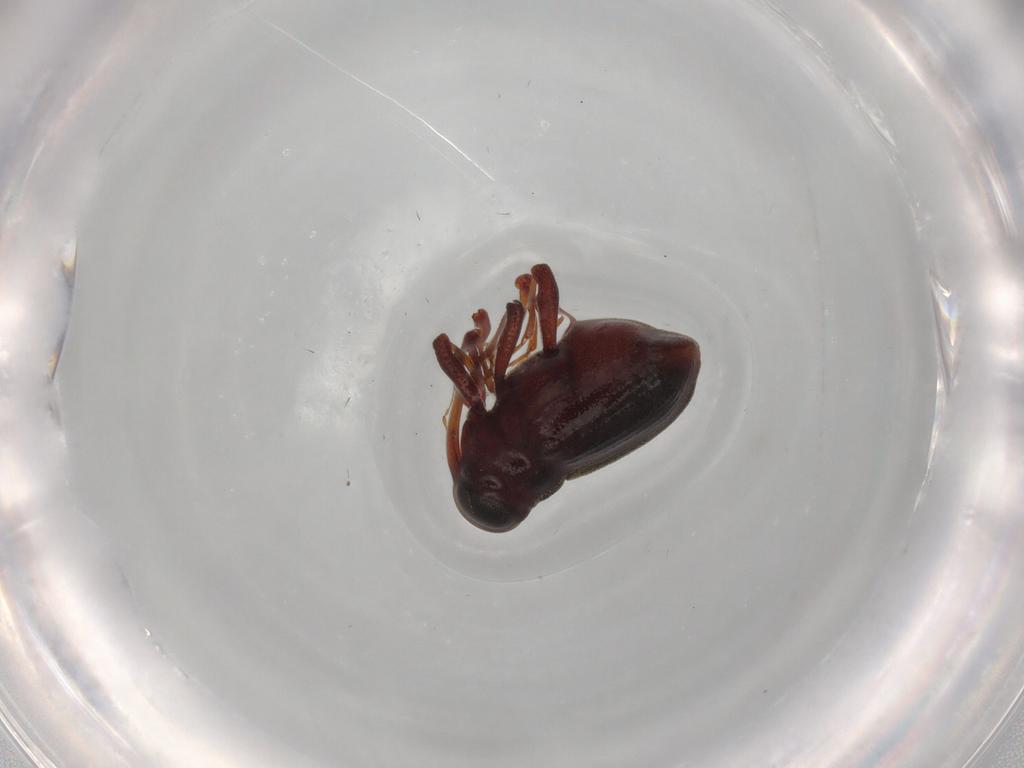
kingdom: Animalia
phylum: Arthropoda
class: Insecta
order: Coleoptera
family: Curculionidae
